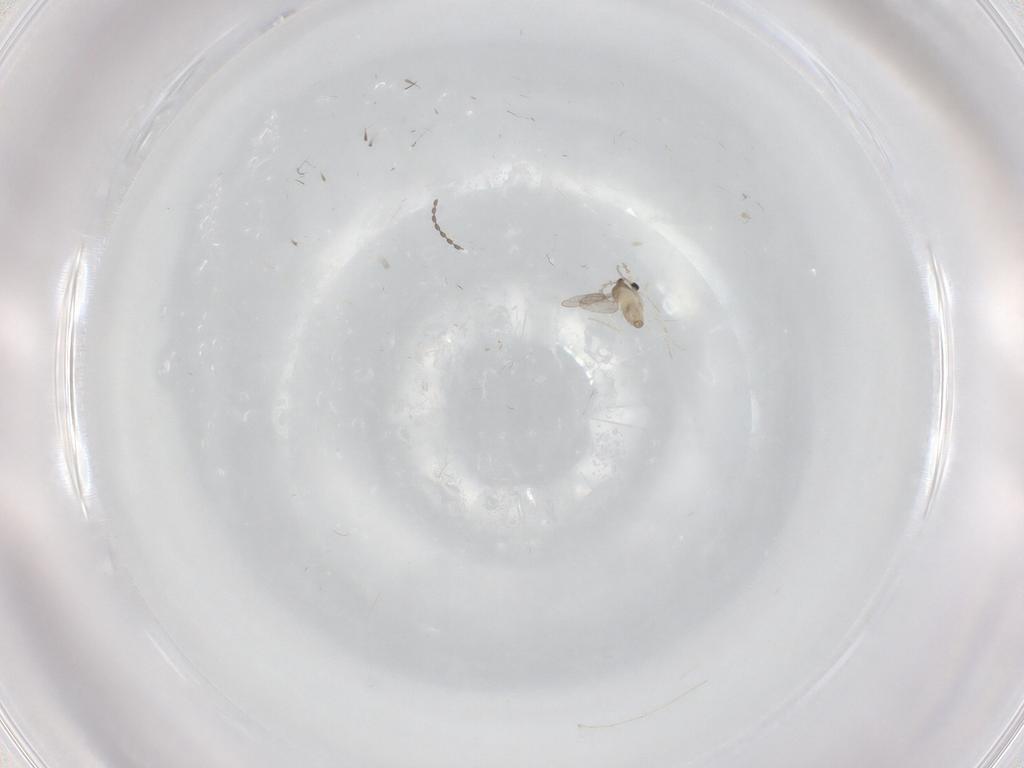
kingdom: Animalia
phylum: Arthropoda
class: Insecta
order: Diptera
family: Cecidomyiidae
